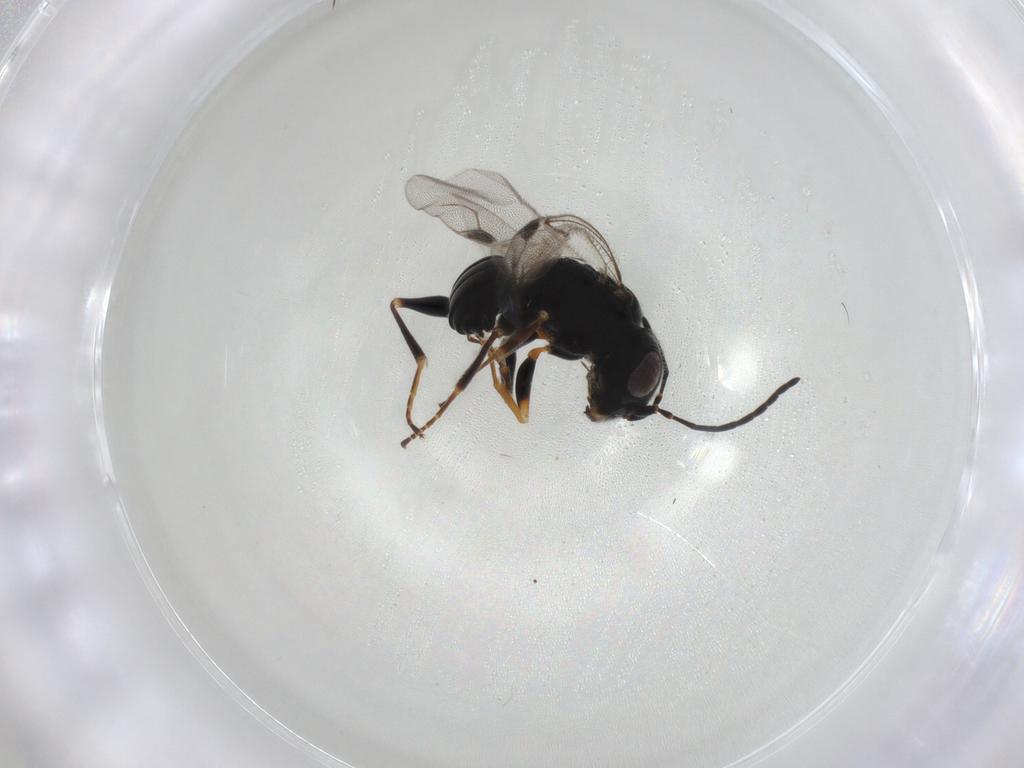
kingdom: Animalia
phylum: Arthropoda
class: Insecta
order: Hymenoptera
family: Dryinidae
